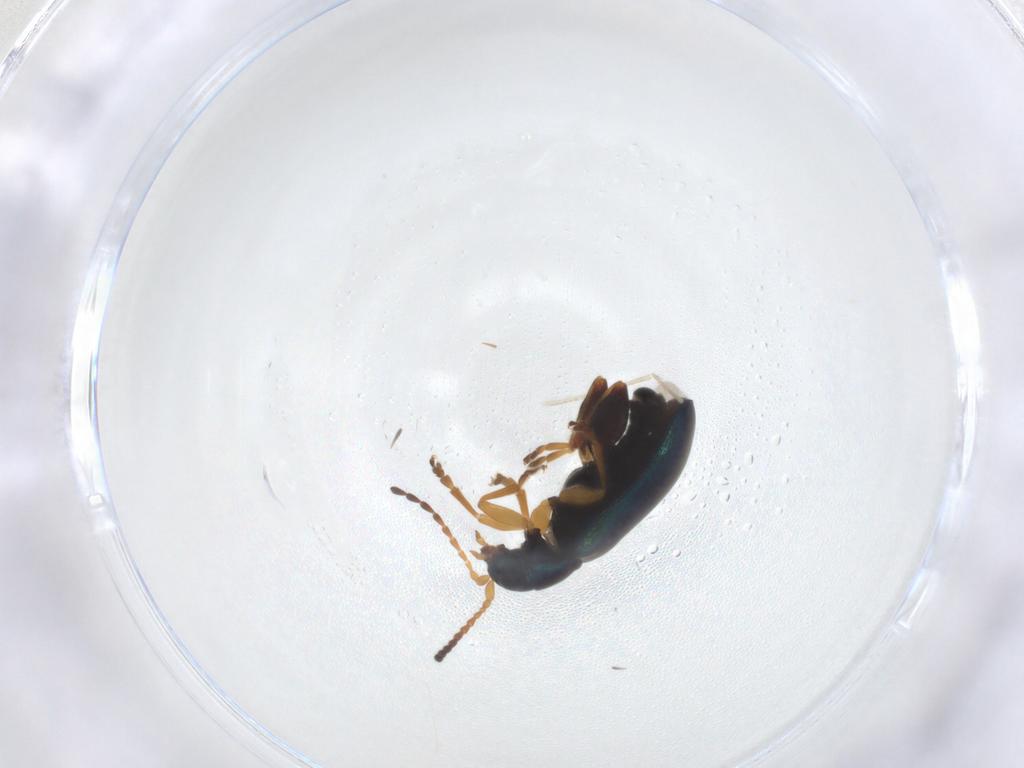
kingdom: Animalia
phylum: Arthropoda
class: Insecta
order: Coleoptera
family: Chrysomelidae
